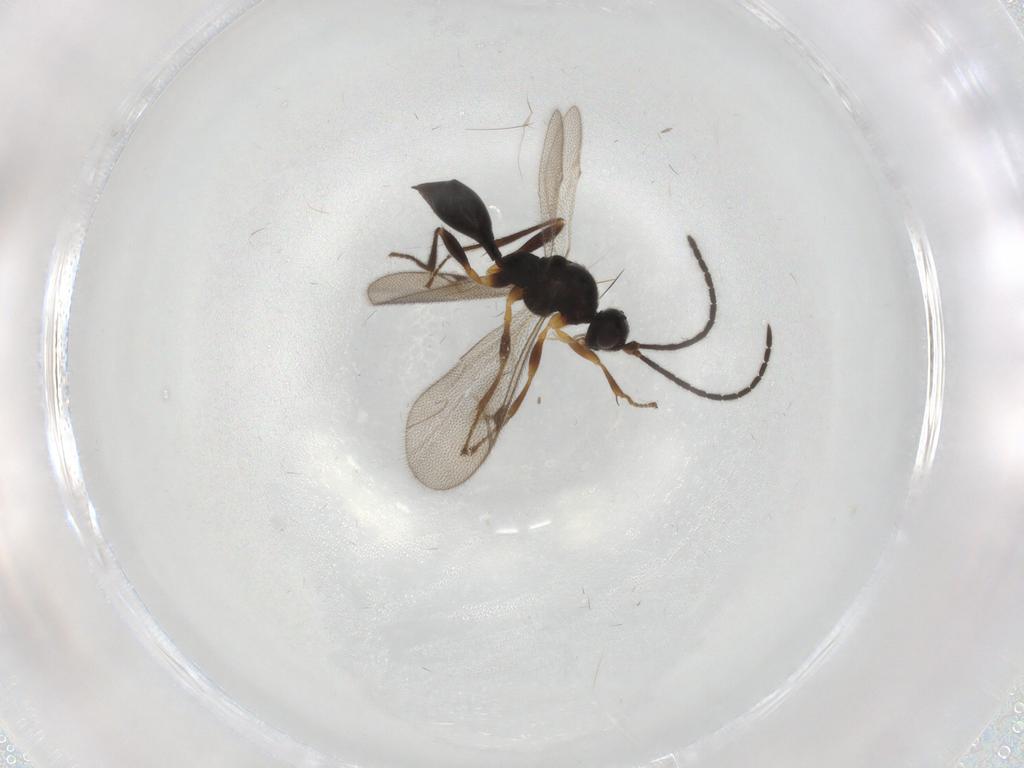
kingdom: Animalia
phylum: Arthropoda
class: Insecta
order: Hymenoptera
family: Proctotrupidae
